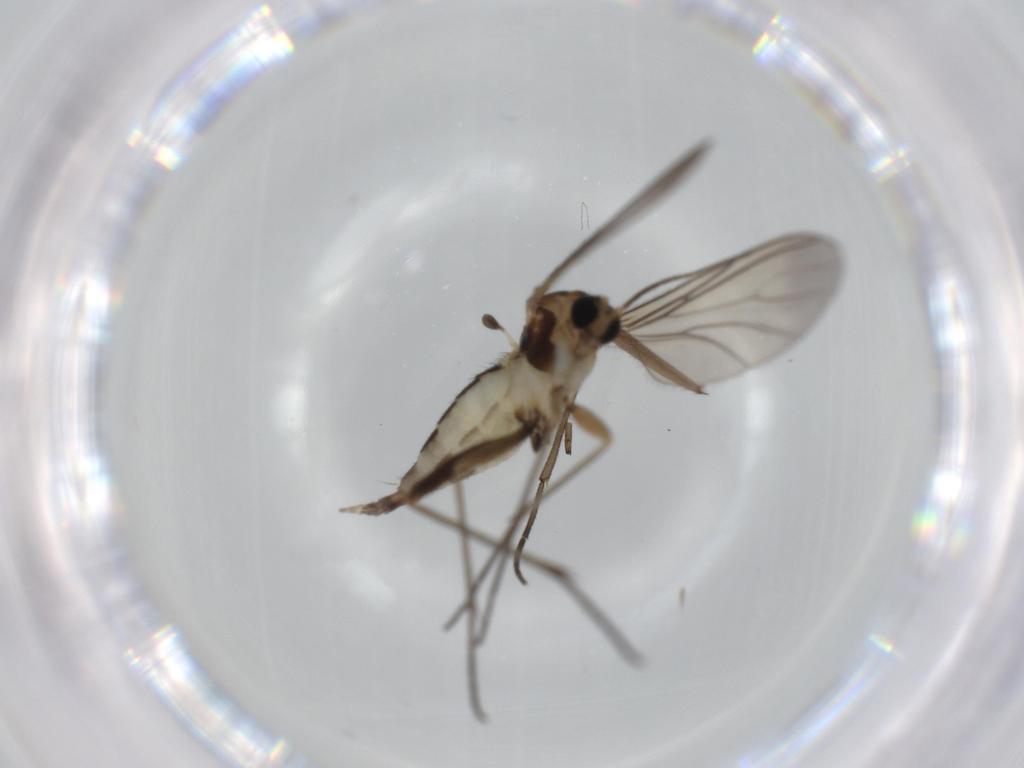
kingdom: Animalia
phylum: Arthropoda
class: Insecta
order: Diptera
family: Sciaridae
